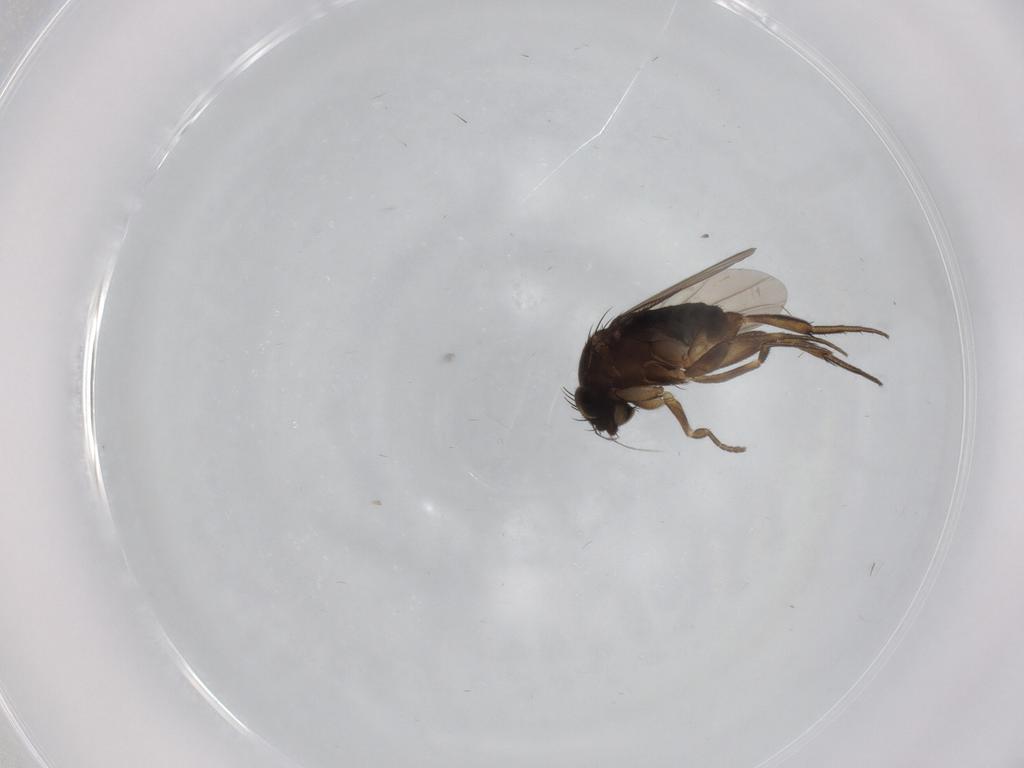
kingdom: Animalia
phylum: Arthropoda
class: Insecta
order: Diptera
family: Phoridae
